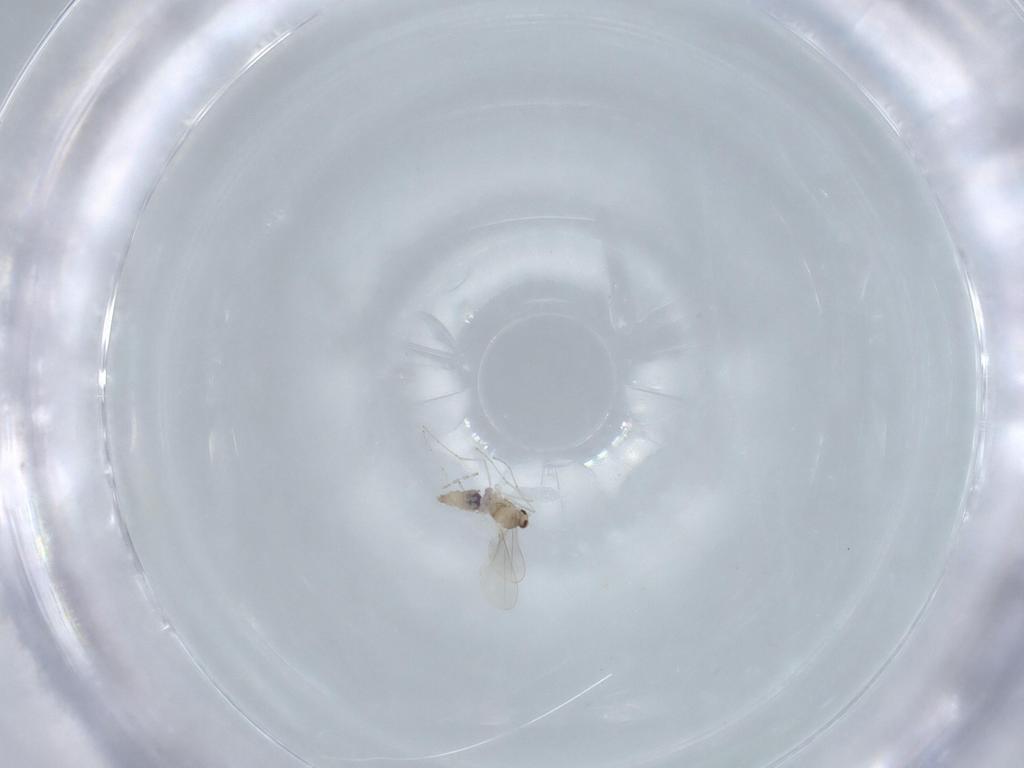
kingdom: Animalia
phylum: Arthropoda
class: Insecta
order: Diptera
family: Cecidomyiidae
